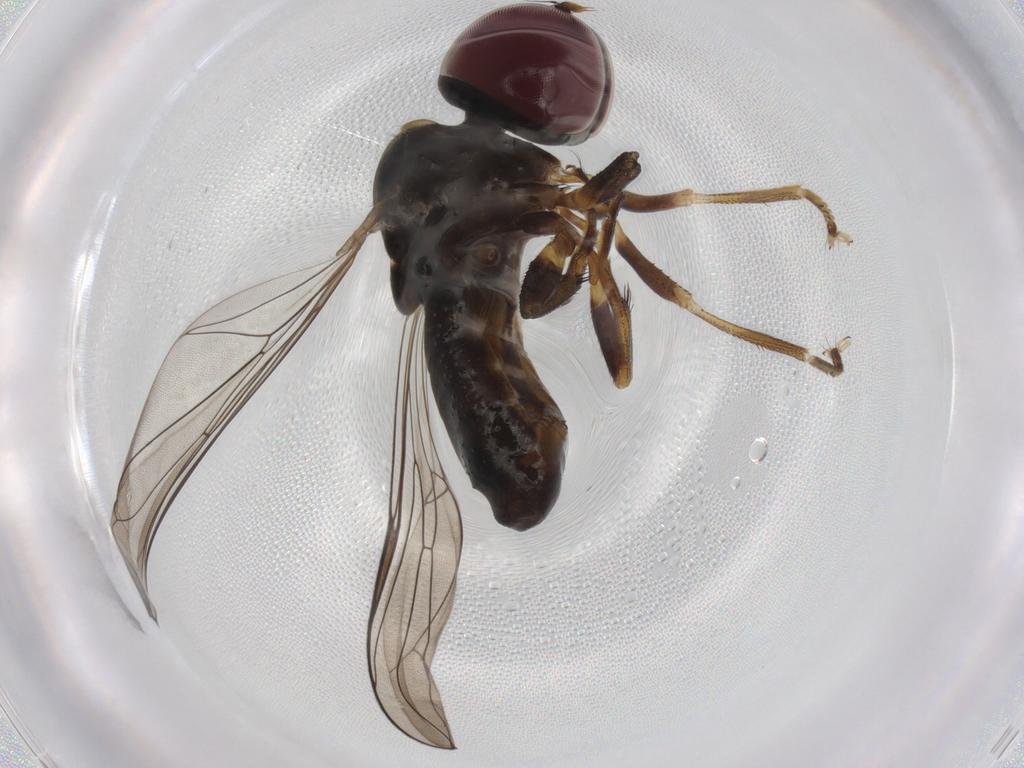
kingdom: Animalia
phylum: Arthropoda
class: Insecta
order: Diptera
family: Pipunculidae
